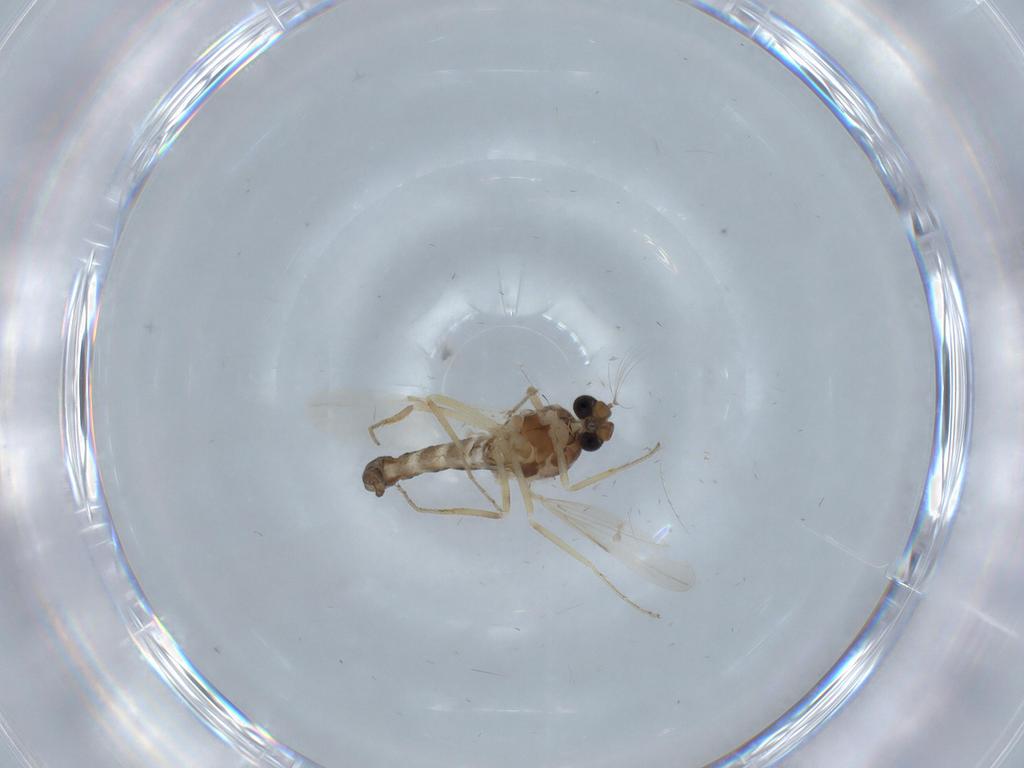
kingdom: Animalia
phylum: Arthropoda
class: Insecta
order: Diptera
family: Ceratopogonidae
